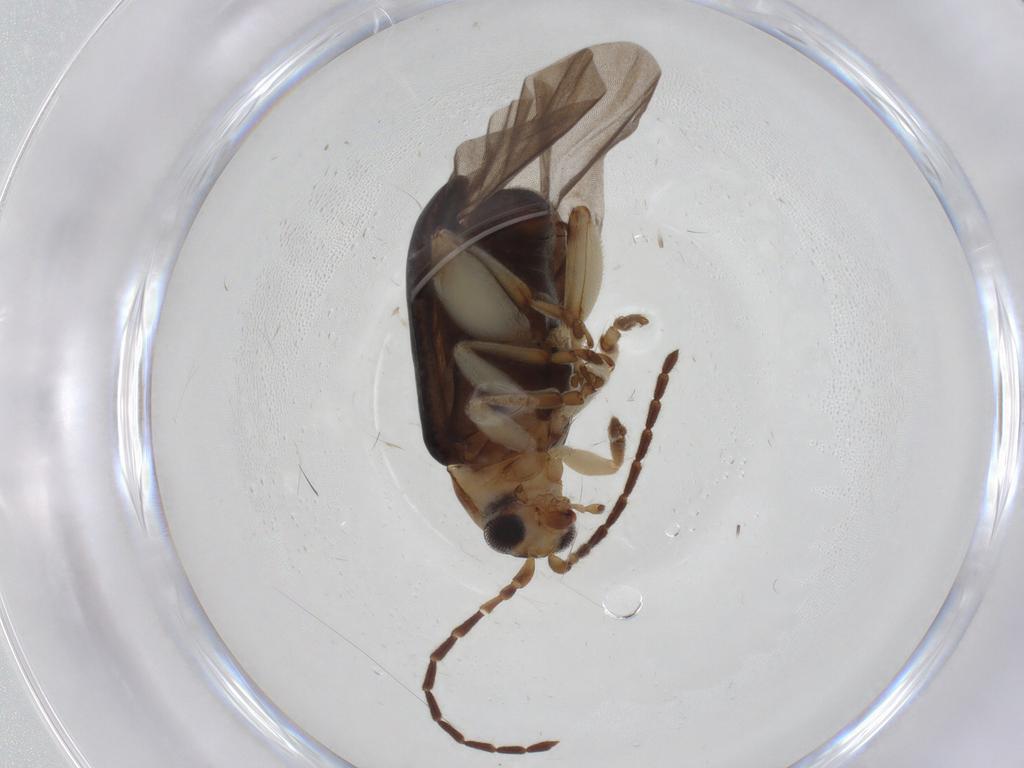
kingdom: Animalia
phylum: Arthropoda
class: Insecta
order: Coleoptera
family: Chrysomelidae
